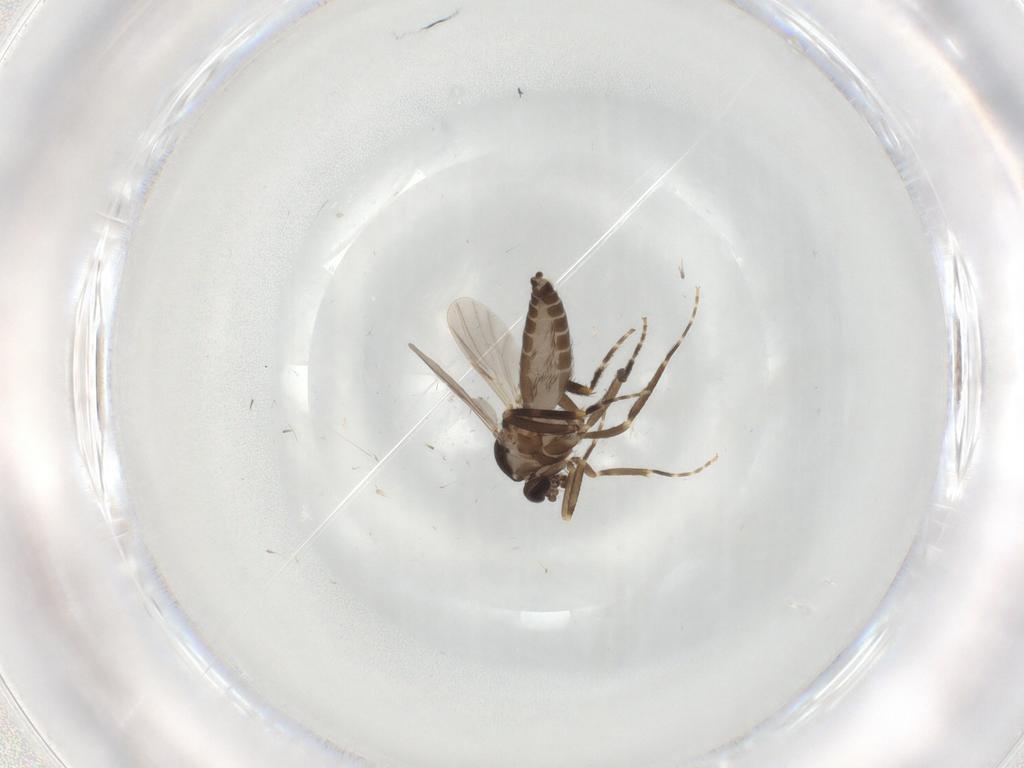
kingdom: Animalia
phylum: Arthropoda
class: Insecta
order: Diptera
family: Ceratopogonidae
